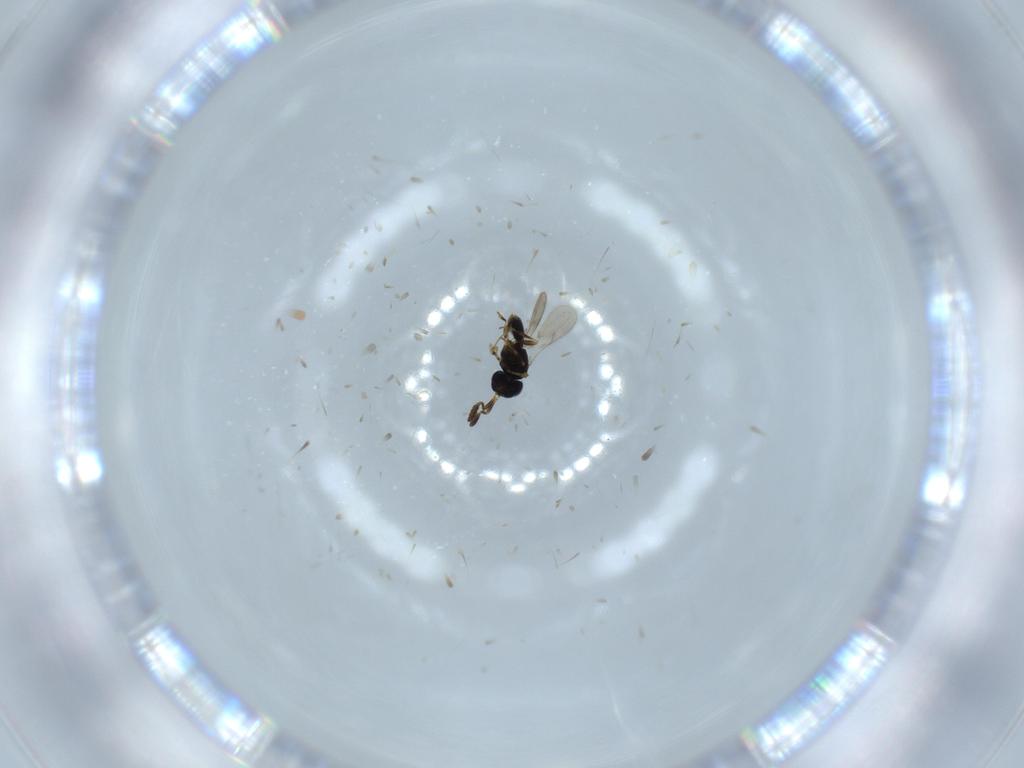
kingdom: Animalia
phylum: Arthropoda
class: Insecta
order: Hymenoptera
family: Scelionidae
